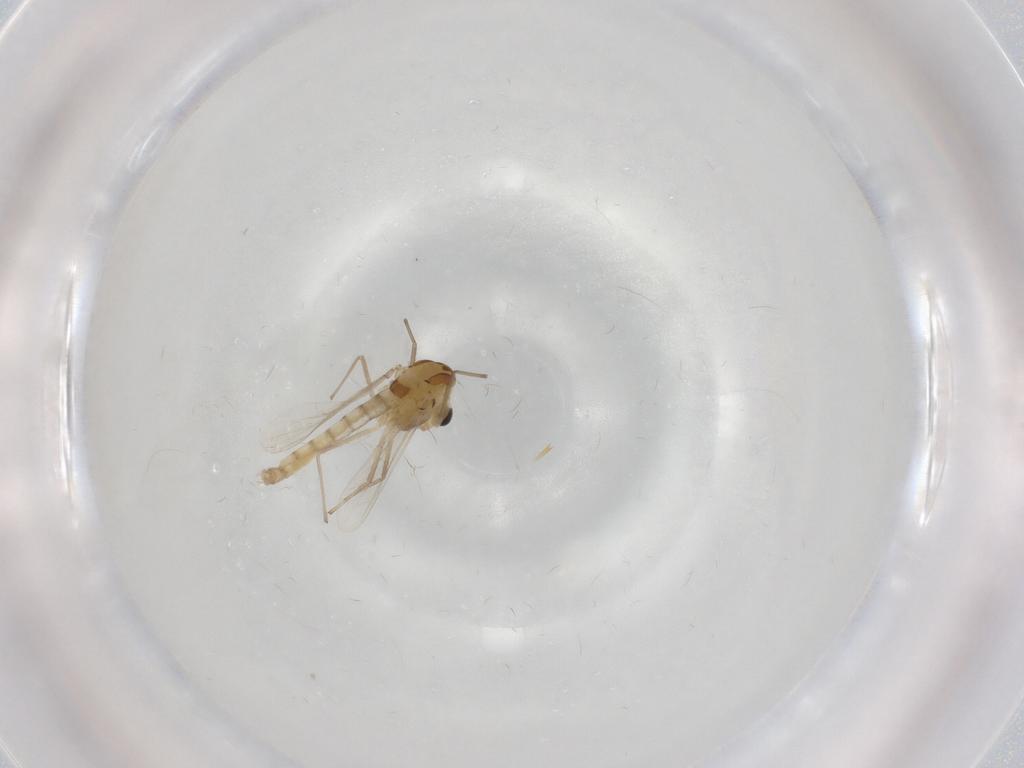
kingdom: Animalia
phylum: Arthropoda
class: Insecta
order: Diptera
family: Chironomidae
